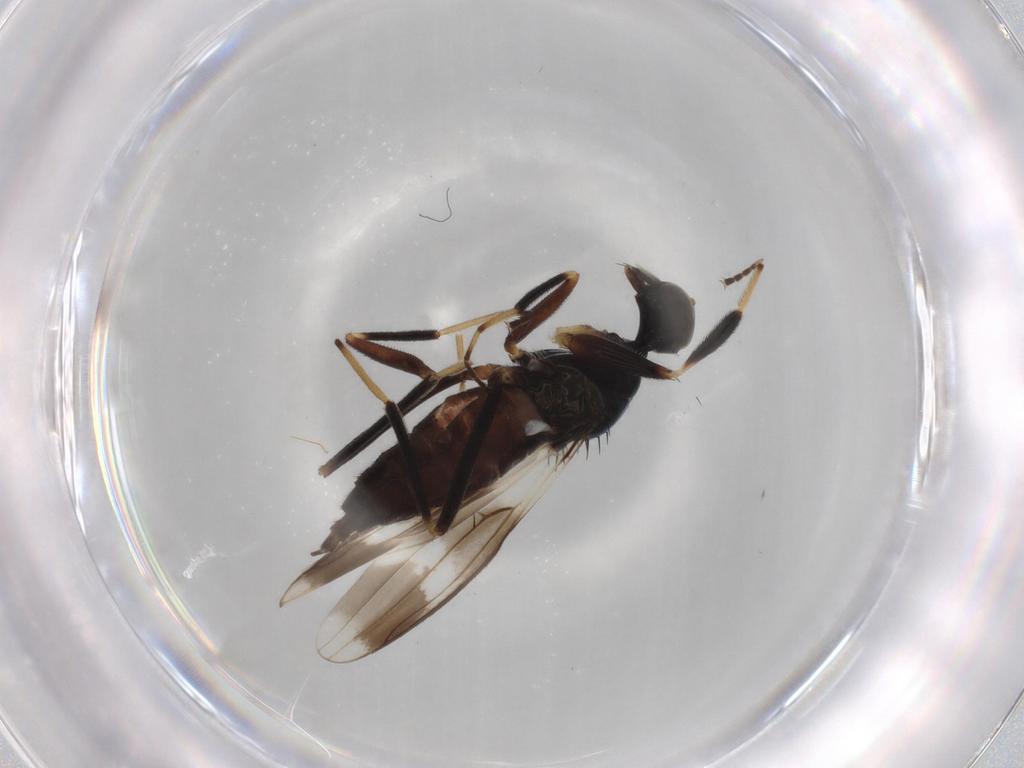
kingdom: Animalia
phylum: Arthropoda
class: Insecta
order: Diptera
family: Hybotidae
